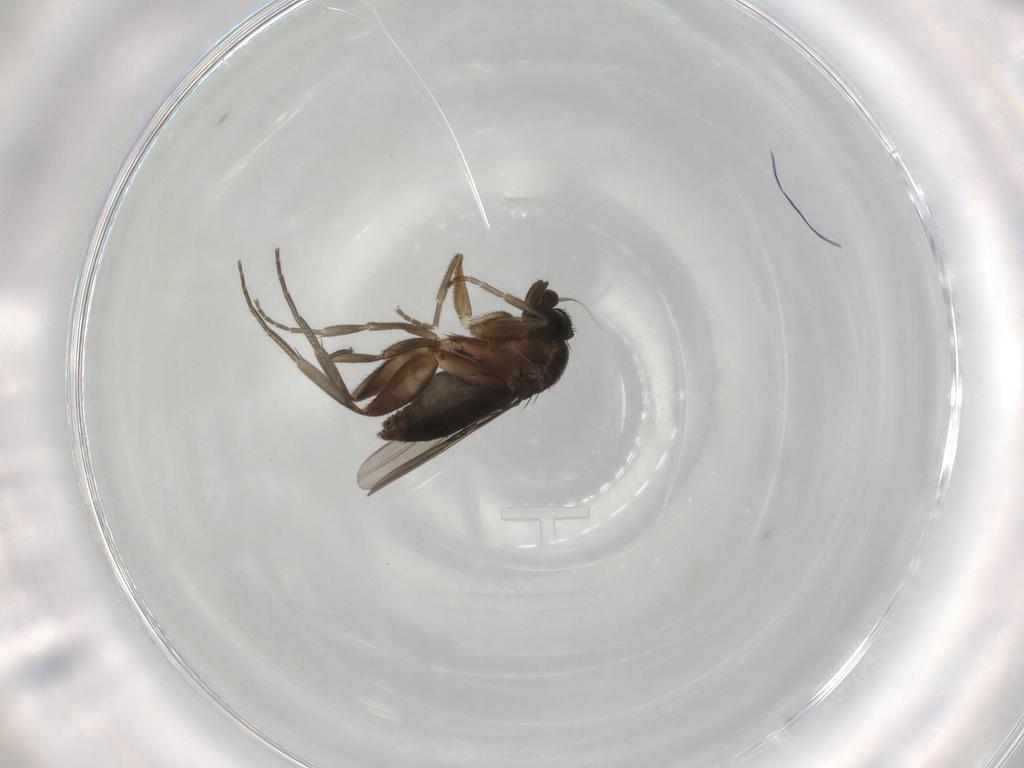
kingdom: Animalia
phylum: Arthropoda
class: Insecta
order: Diptera
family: Phoridae
